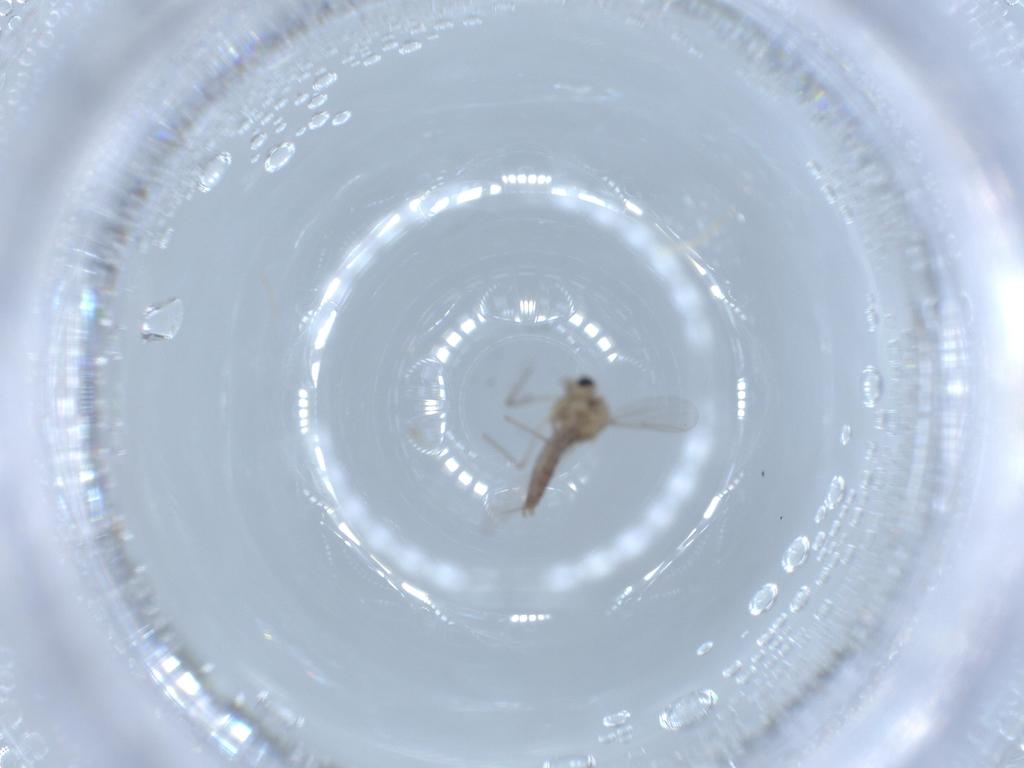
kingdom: Animalia
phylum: Arthropoda
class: Insecta
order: Diptera
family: Chironomidae
